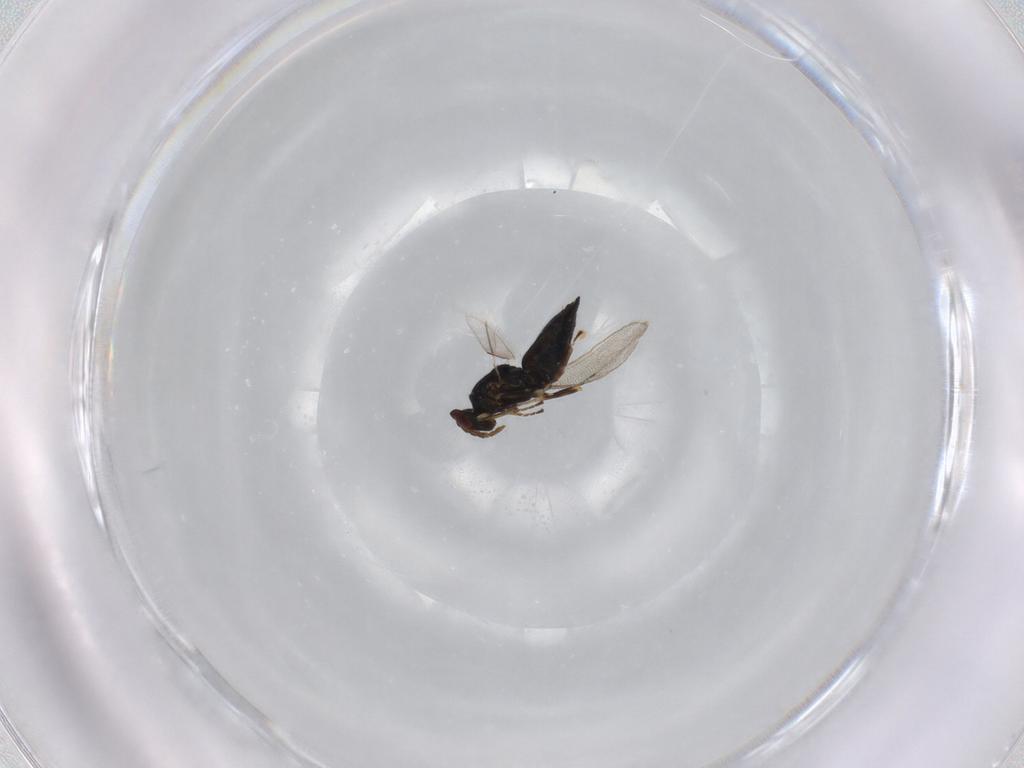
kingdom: Animalia
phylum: Arthropoda
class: Insecta
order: Hymenoptera
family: Eulophidae
